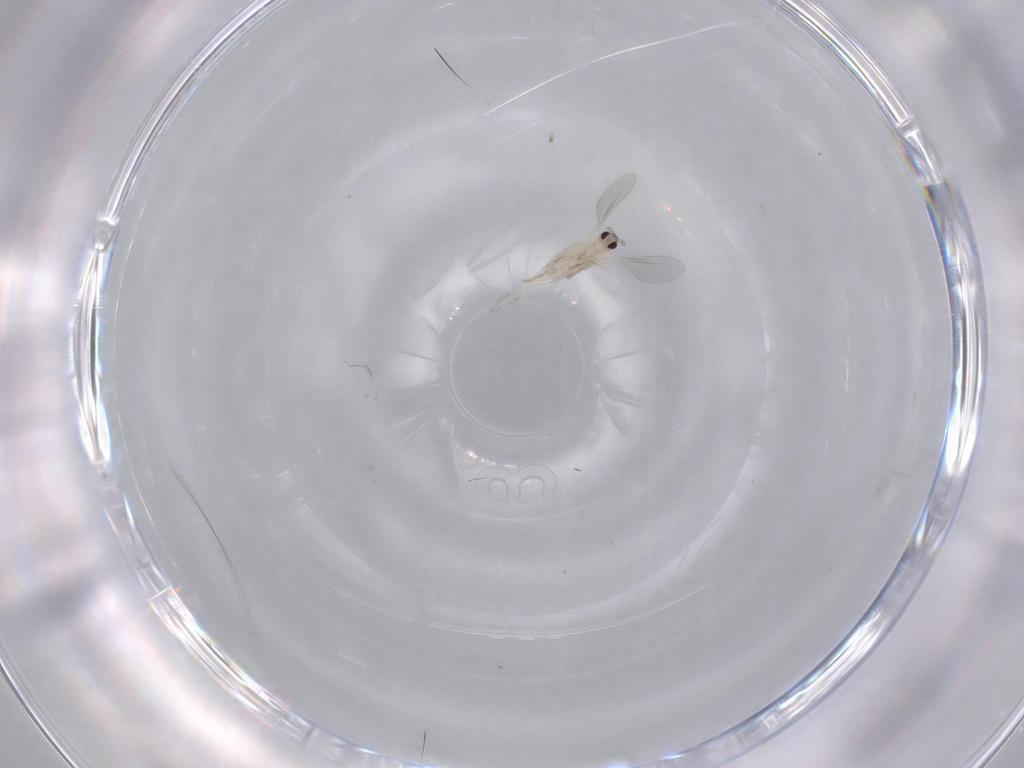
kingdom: Animalia
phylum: Arthropoda
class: Insecta
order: Diptera
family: Cecidomyiidae
